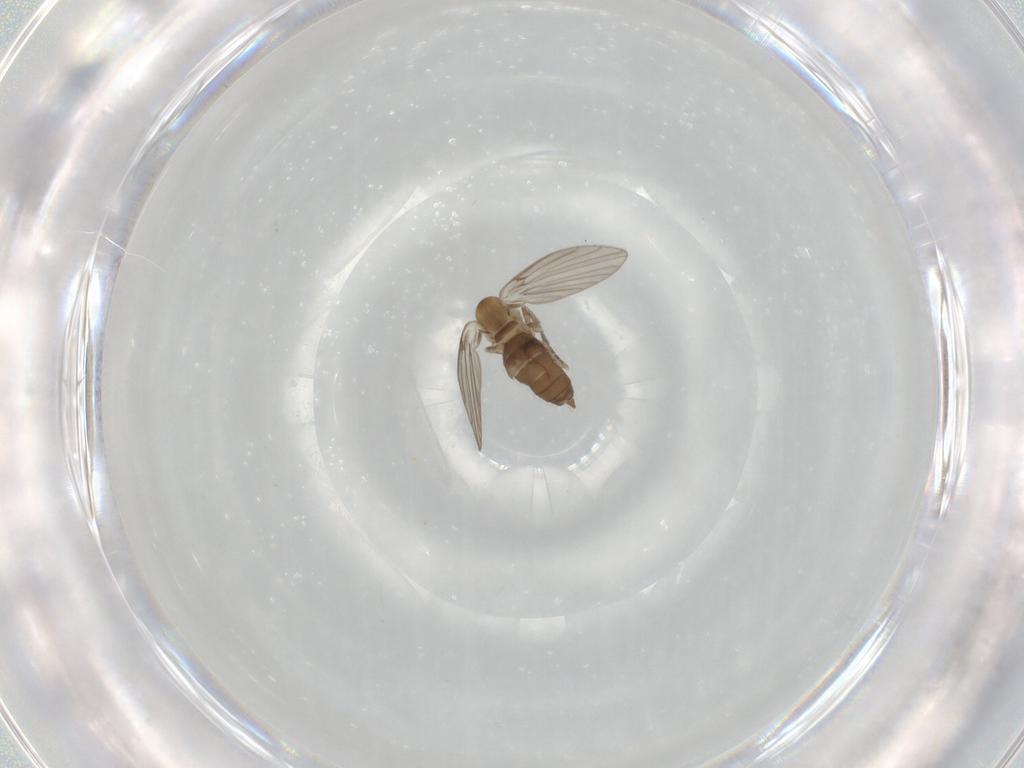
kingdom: Animalia
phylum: Arthropoda
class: Insecta
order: Diptera
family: Psychodidae
